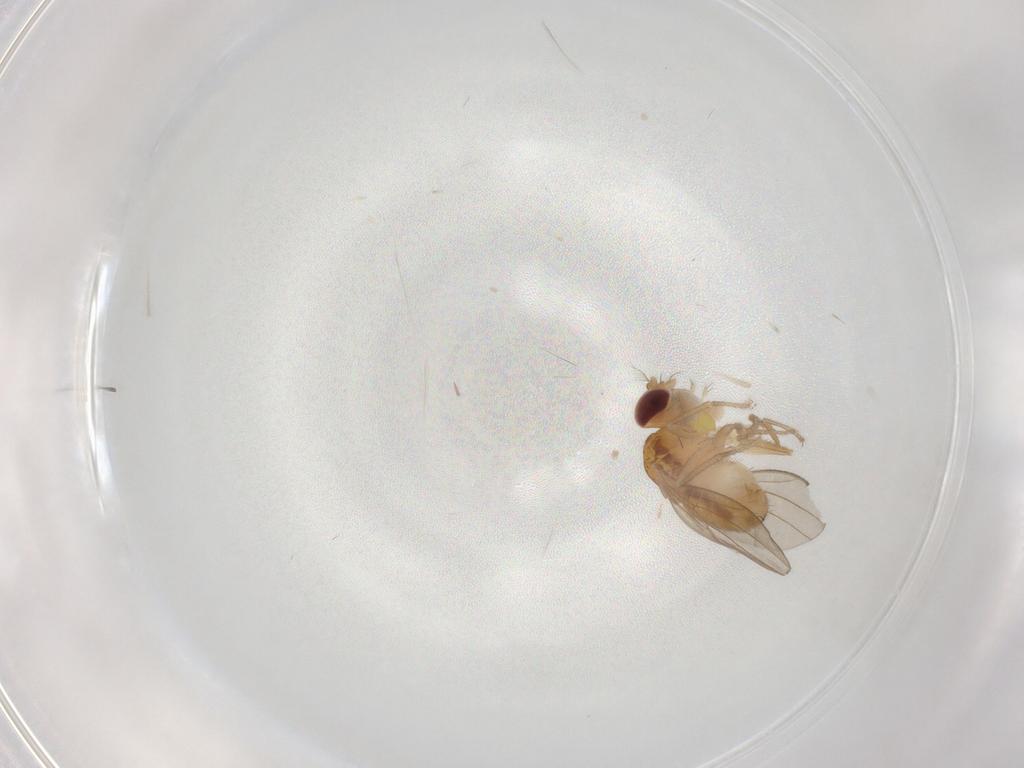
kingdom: Animalia
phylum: Arthropoda
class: Insecta
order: Diptera
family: Drosophilidae
